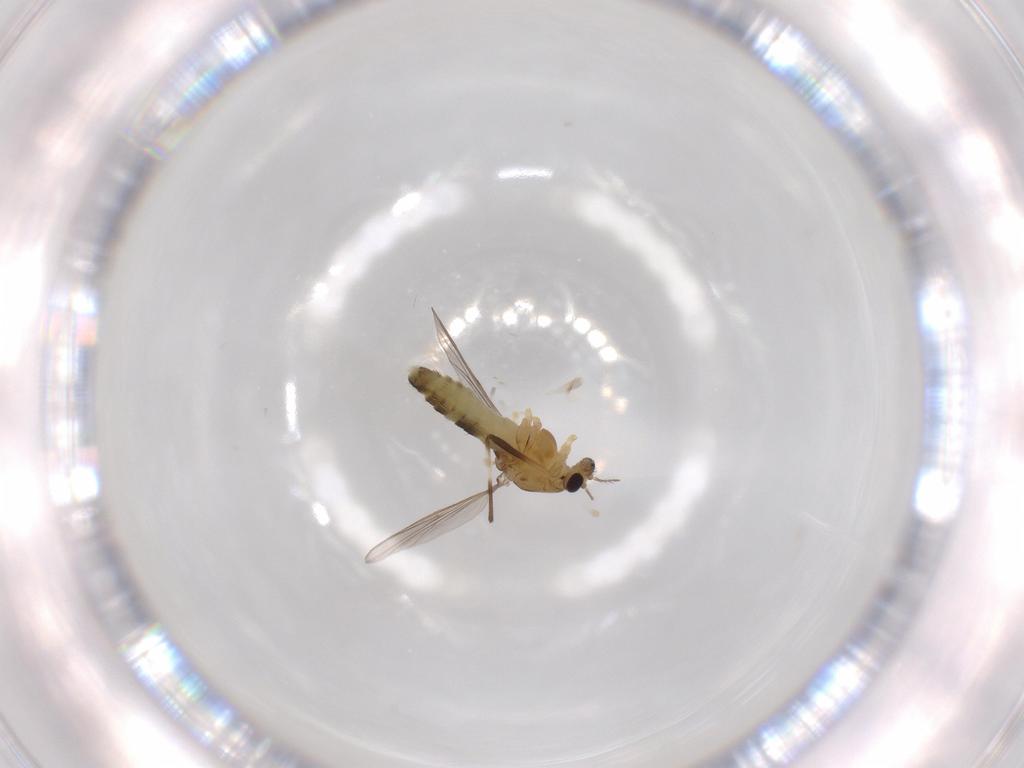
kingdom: Animalia
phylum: Arthropoda
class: Insecta
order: Diptera
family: Chironomidae
